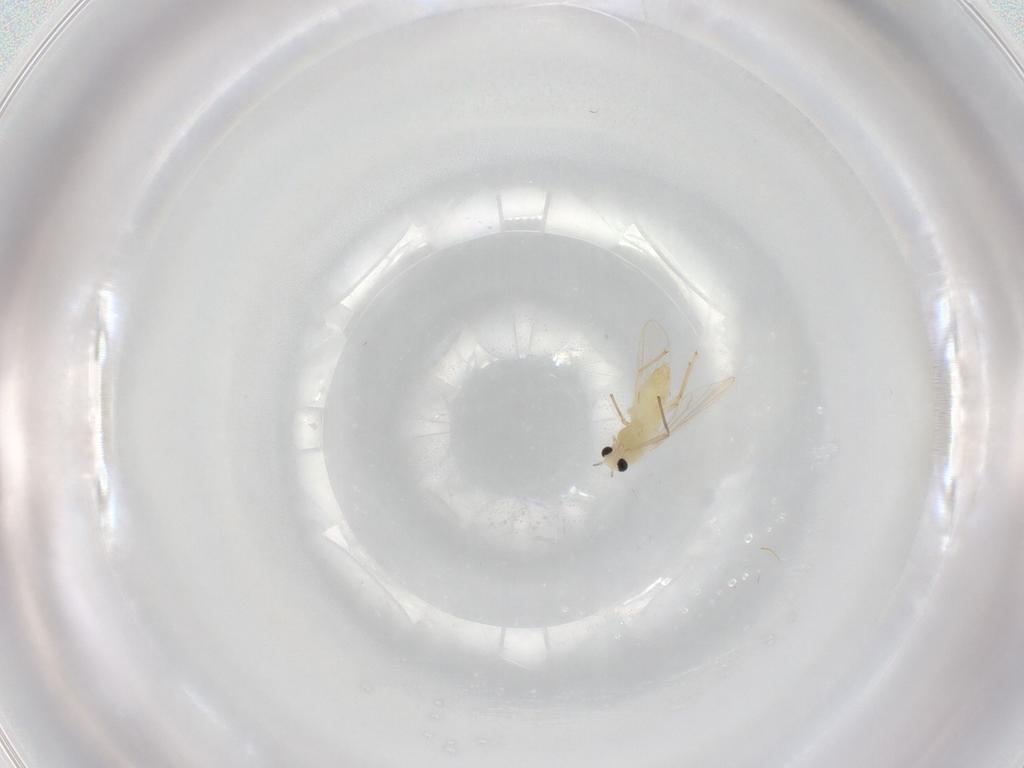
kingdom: Animalia
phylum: Arthropoda
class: Insecta
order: Diptera
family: Chironomidae
